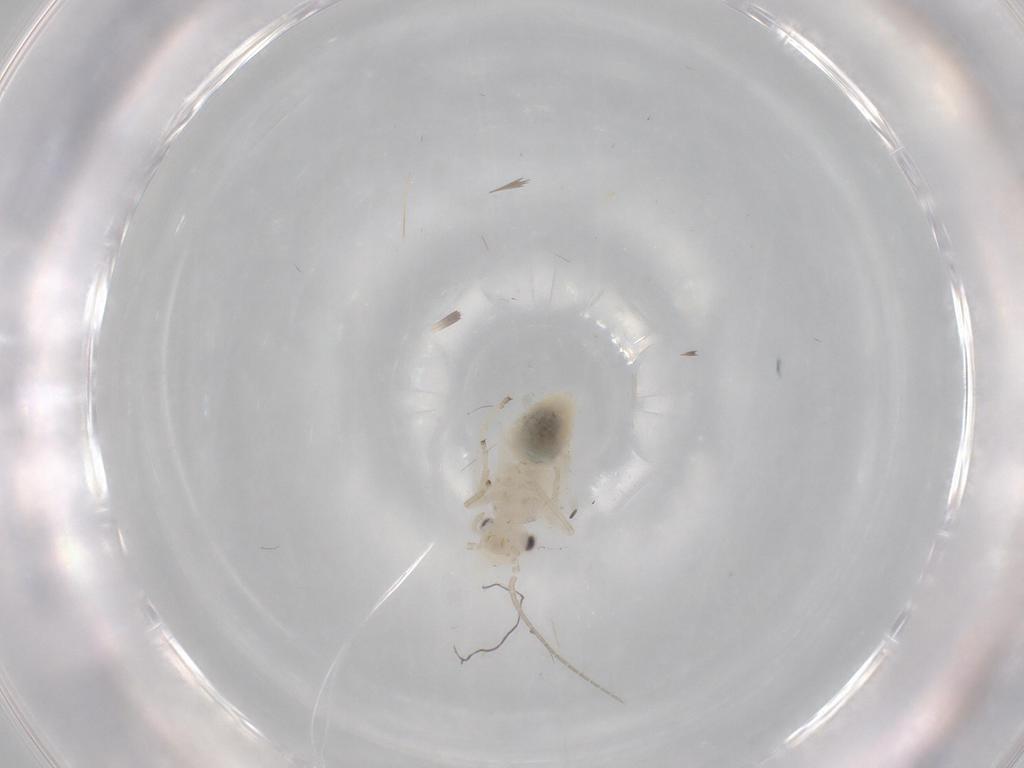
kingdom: Animalia
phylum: Arthropoda
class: Insecta
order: Psocodea
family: Caeciliusidae
